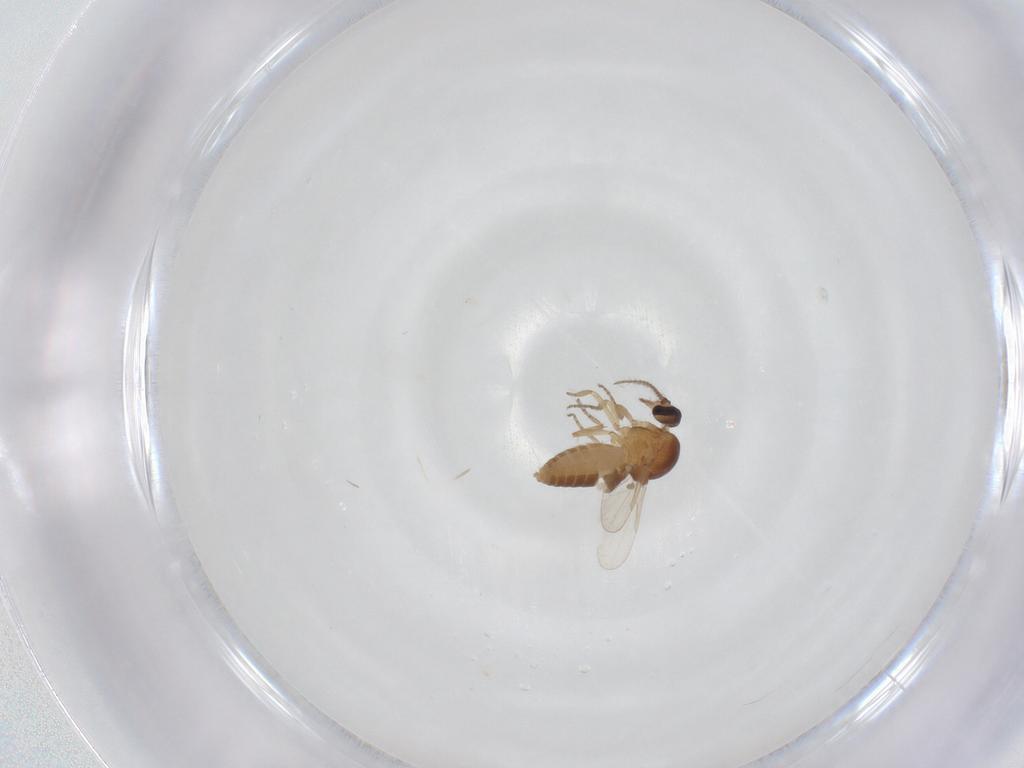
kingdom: Animalia
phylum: Arthropoda
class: Insecta
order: Diptera
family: Ceratopogonidae
